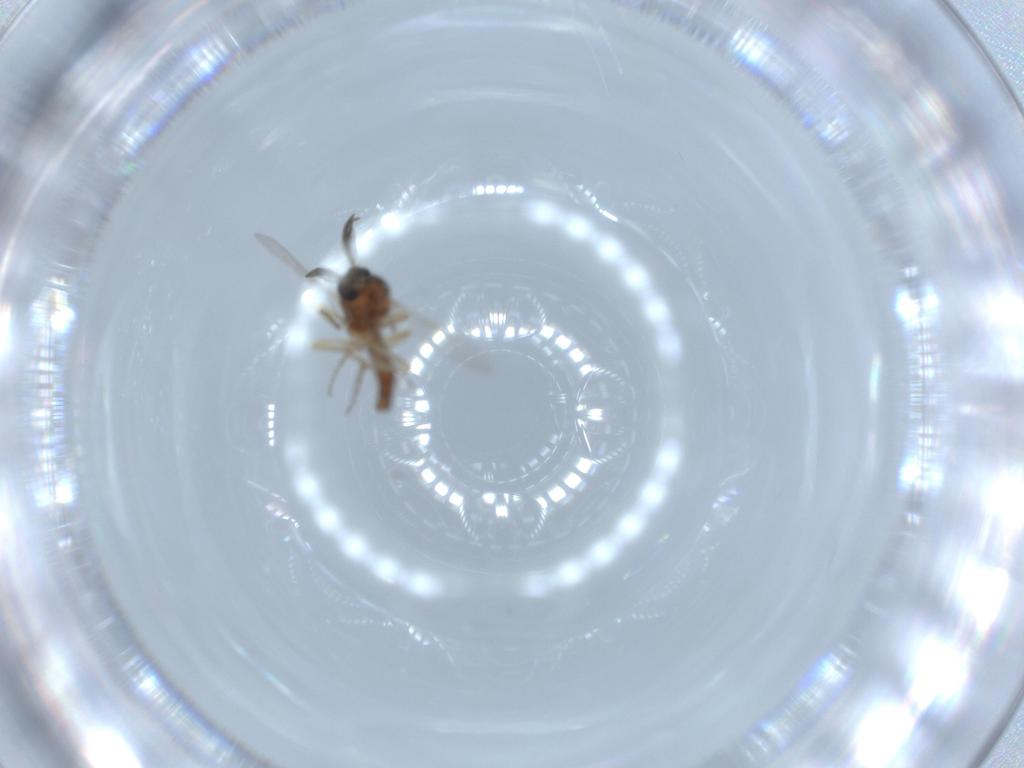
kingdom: Animalia
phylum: Arthropoda
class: Insecta
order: Diptera
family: Ceratopogonidae
